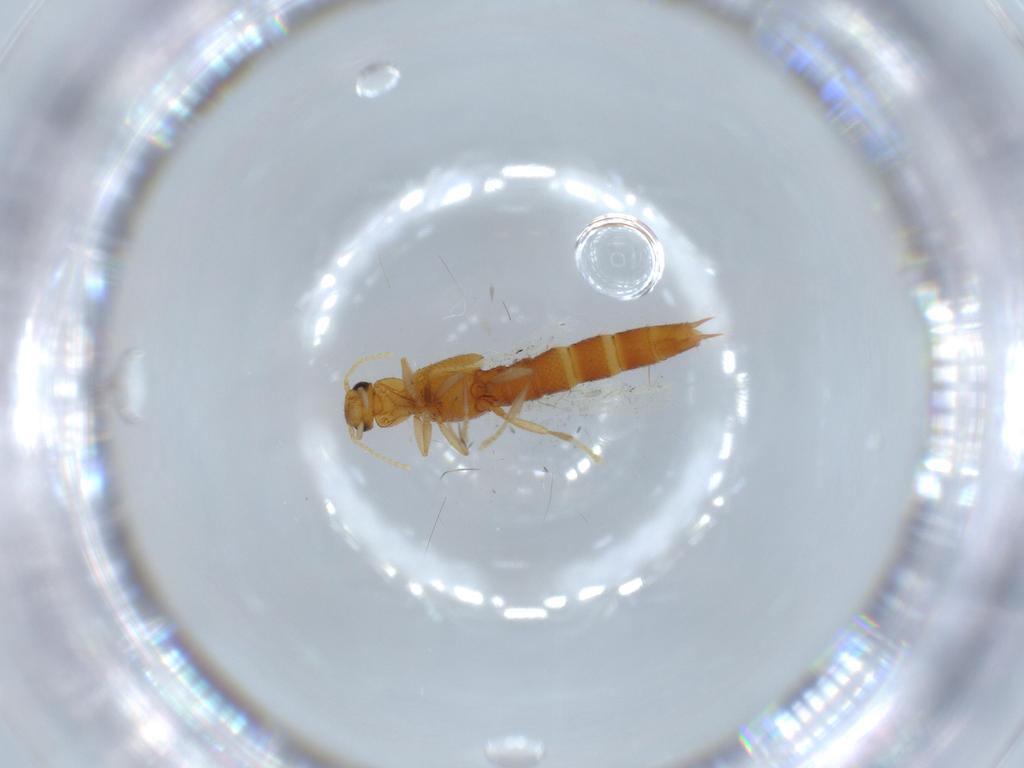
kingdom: Animalia
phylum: Arthropoda
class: Insecta
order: Coleoptera
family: Staphylinidae
